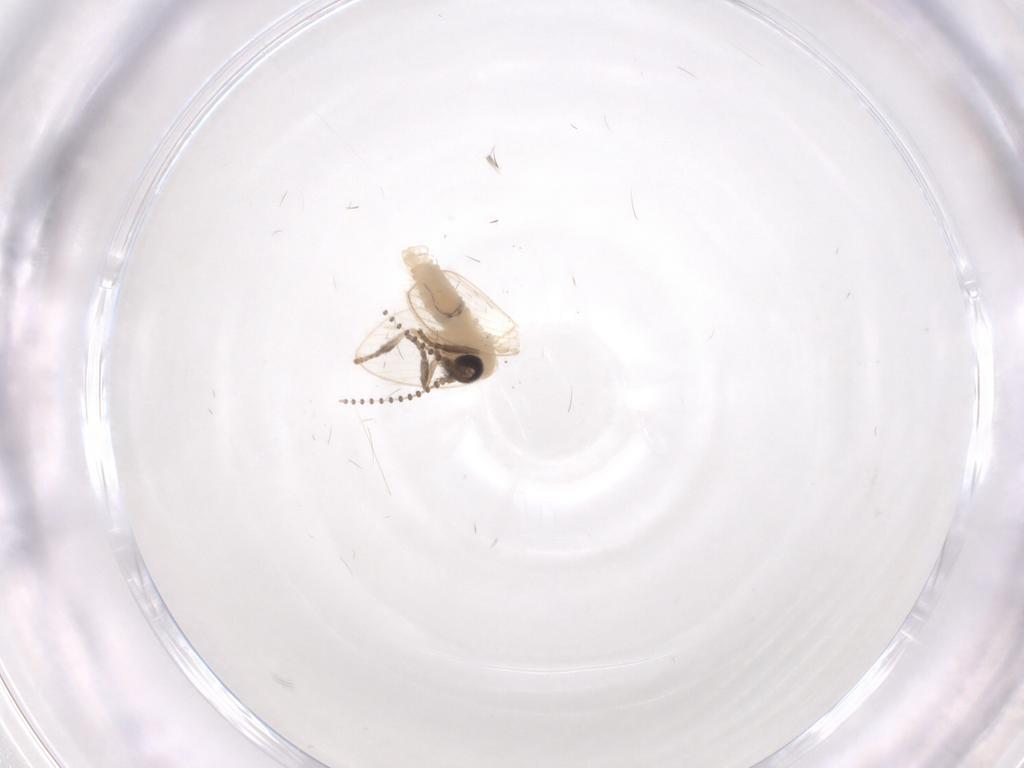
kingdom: Animalia
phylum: Arthropoda
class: Insecta
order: Diptera
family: Psychodidae
